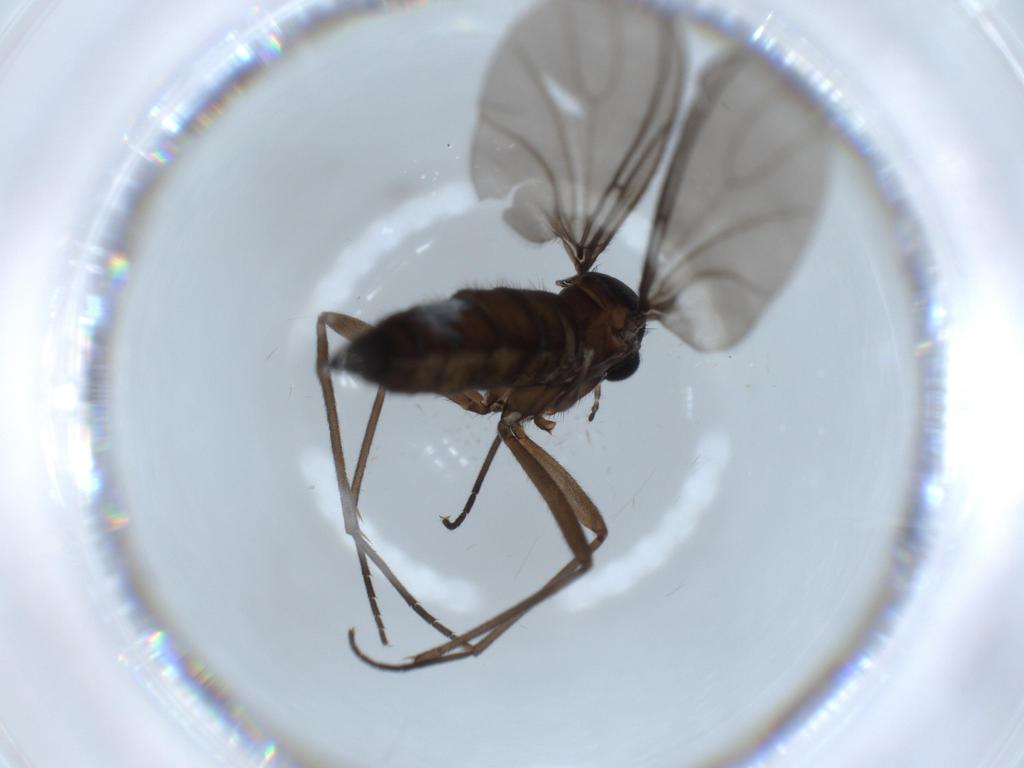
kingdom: Animalia
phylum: Arthropoda
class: Insecta
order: Diptera
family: Sciaridae
